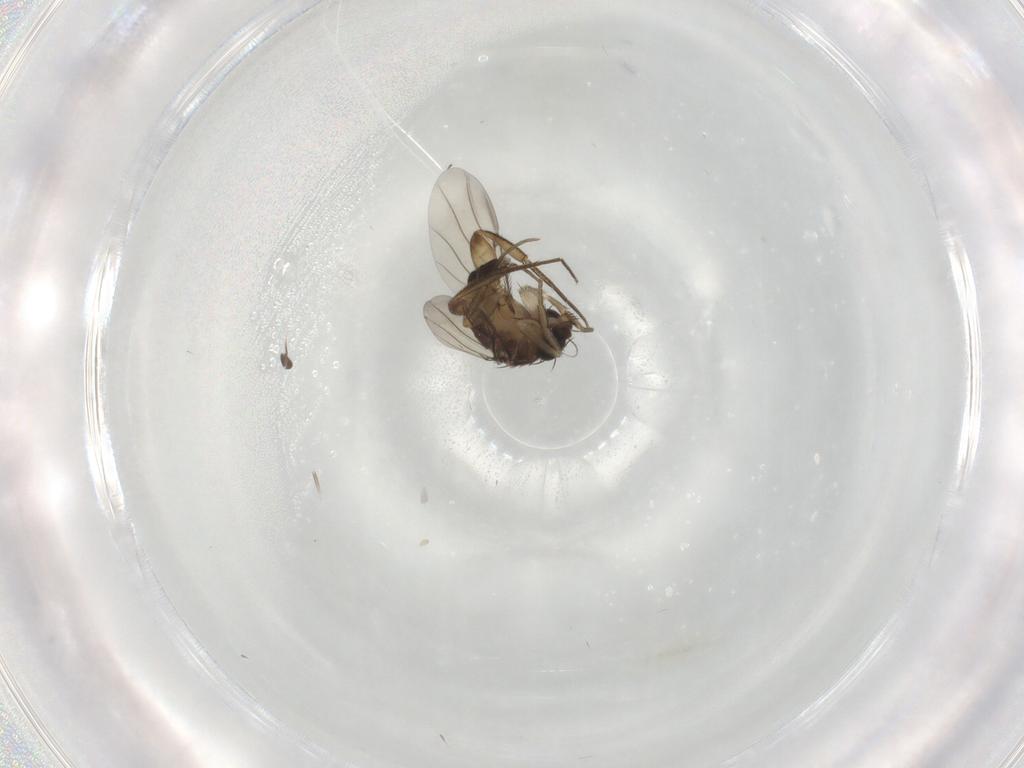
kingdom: Animalia
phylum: Arthropoda
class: Insecta
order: Diptera
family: Phoridae
